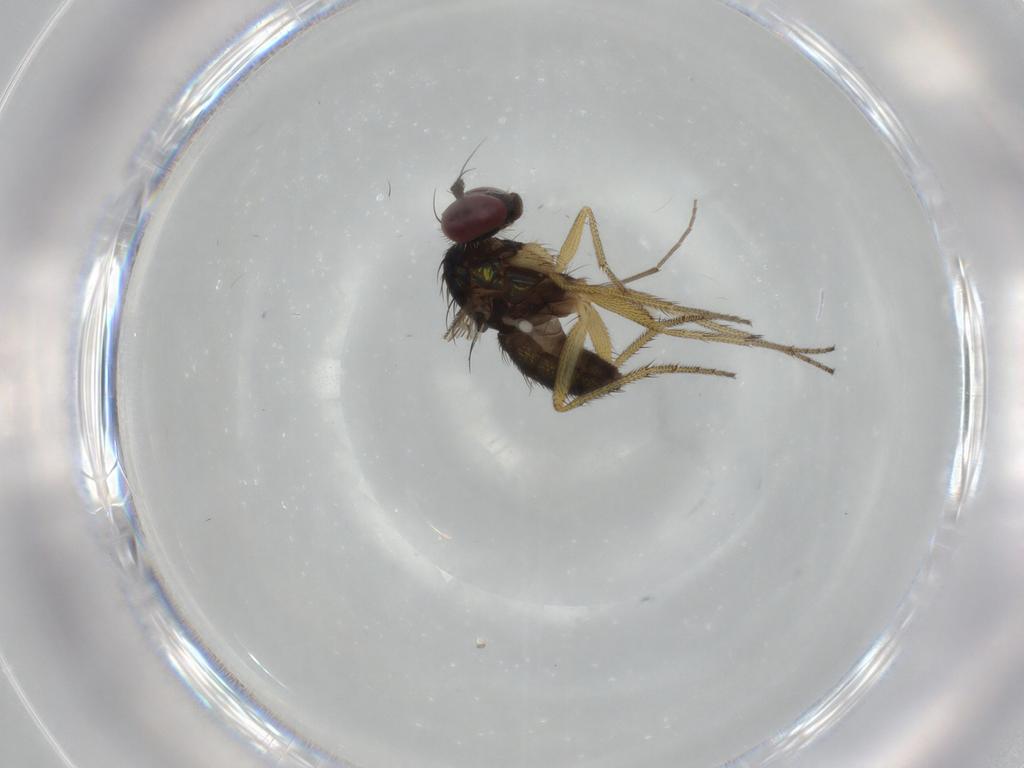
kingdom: Animalia
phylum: Arthropoda
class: Insecta
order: Diptera
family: Dolichopodidae
